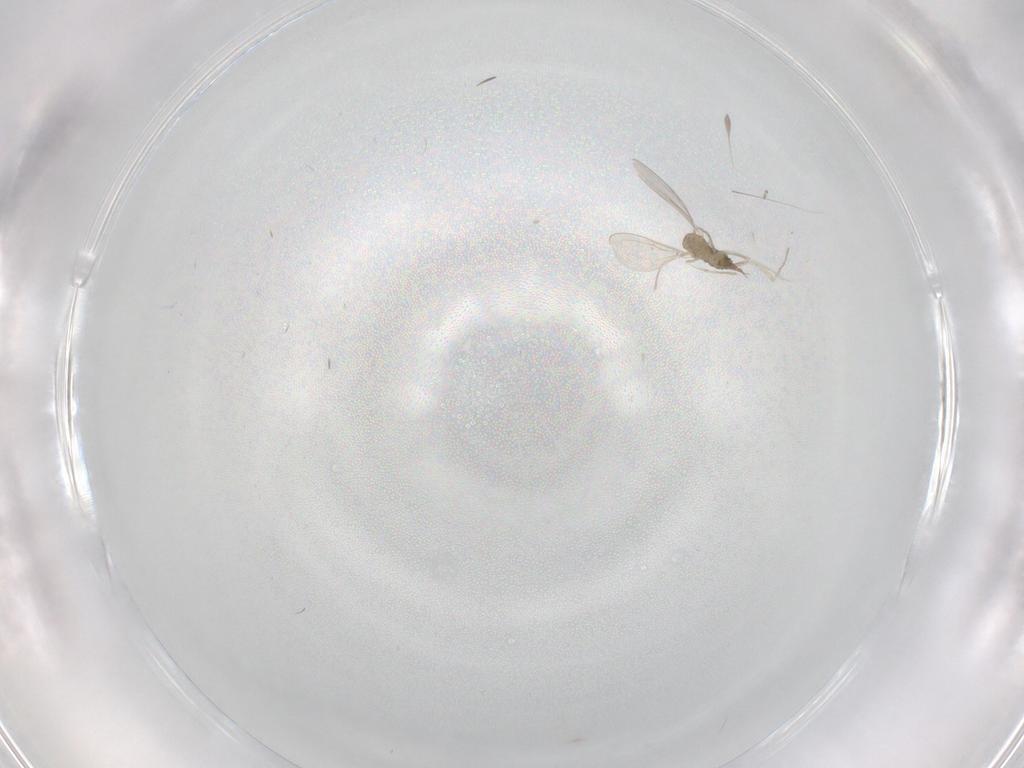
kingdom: Animalia
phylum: Arthropoda
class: Insecta
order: Diptera
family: Cecidomyiidae
